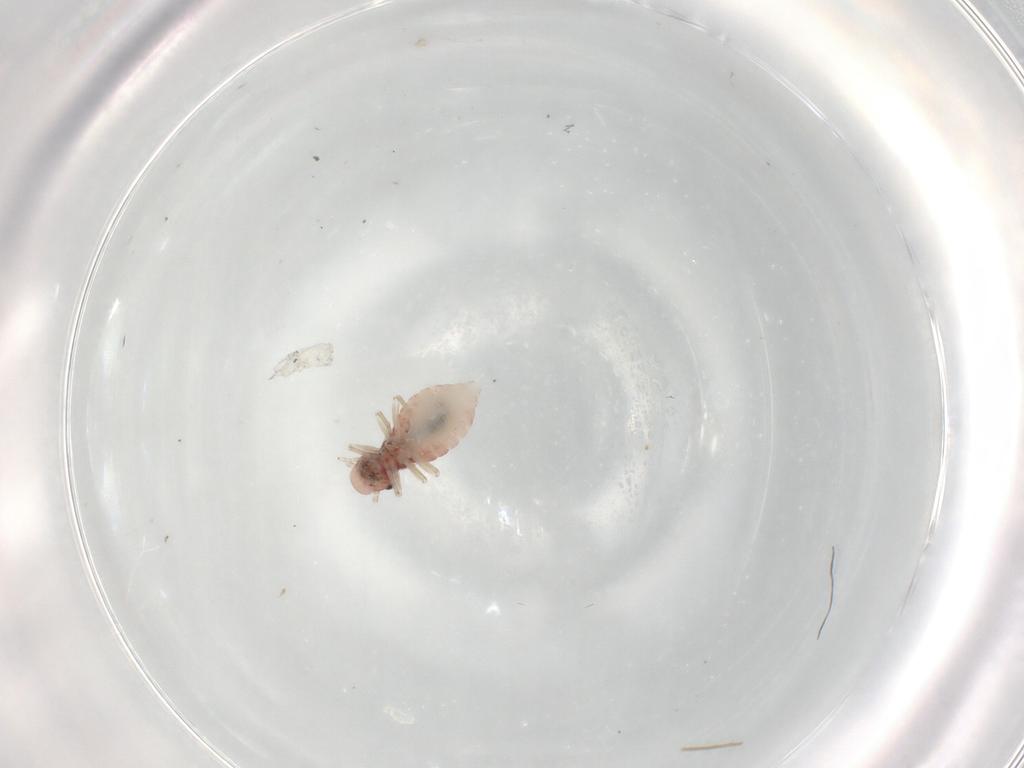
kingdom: Animalia
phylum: Arthropoda
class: Insecta
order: Psocodea
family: Caeciliusidae
